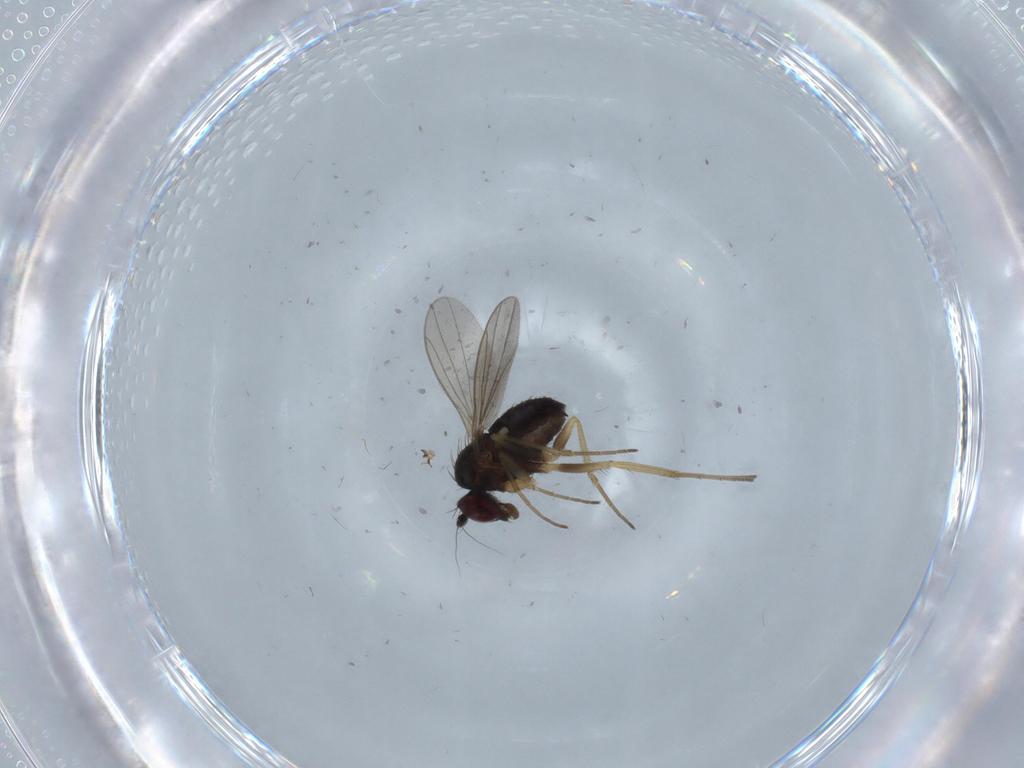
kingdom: Animalia
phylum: Arthropoda
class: Insecta
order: Diptera
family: Dolichopodidae
